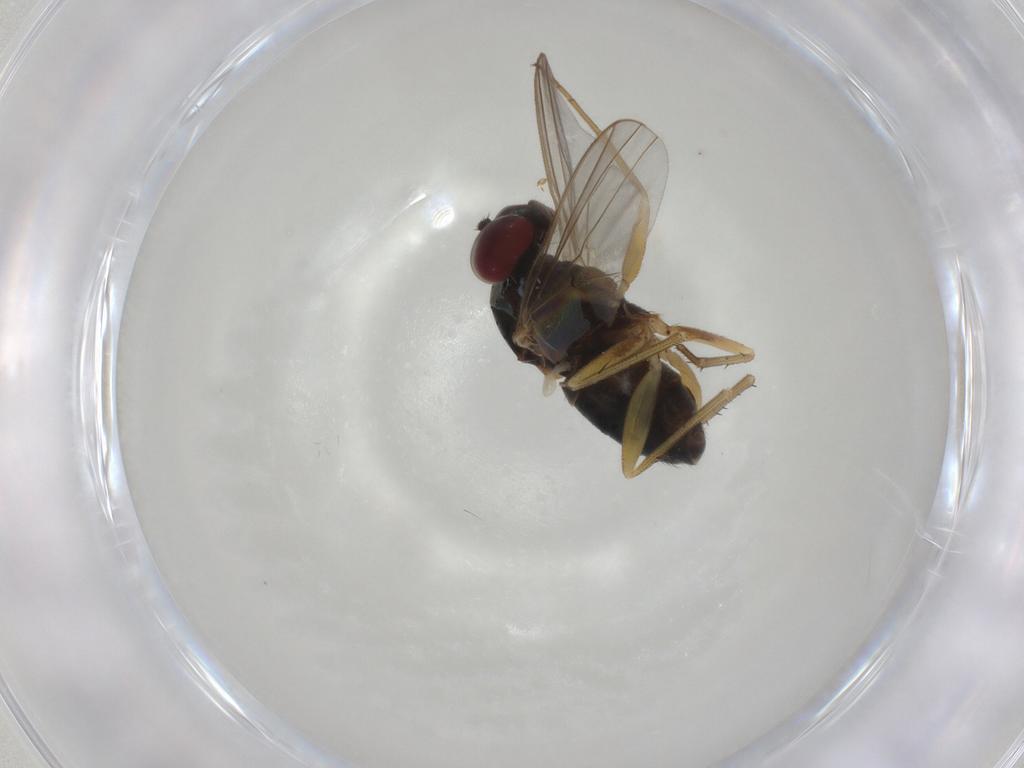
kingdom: Animalia
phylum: Arthropoda
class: Insecta
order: Diptera
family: Dolichopodidae
